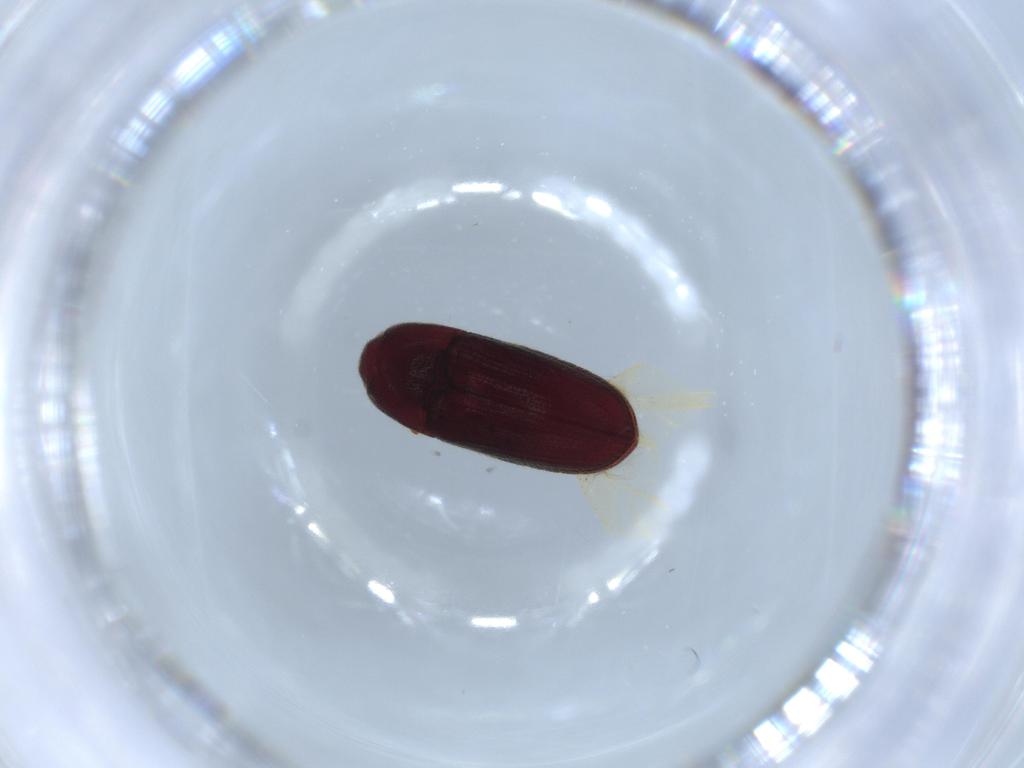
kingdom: Animalia
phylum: Arthropoda
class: Insecta
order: Coleoptera
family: Throscidae
